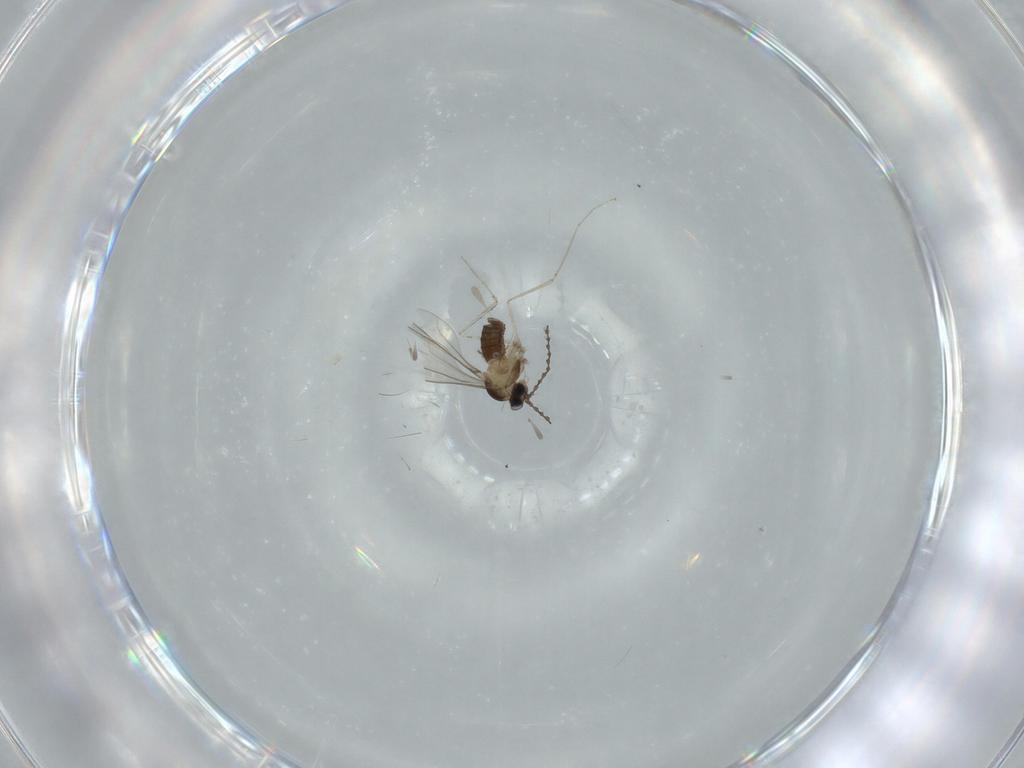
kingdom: Animalia
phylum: Arthropoda
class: Insecta
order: Diptera
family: Cecidomyiidae
